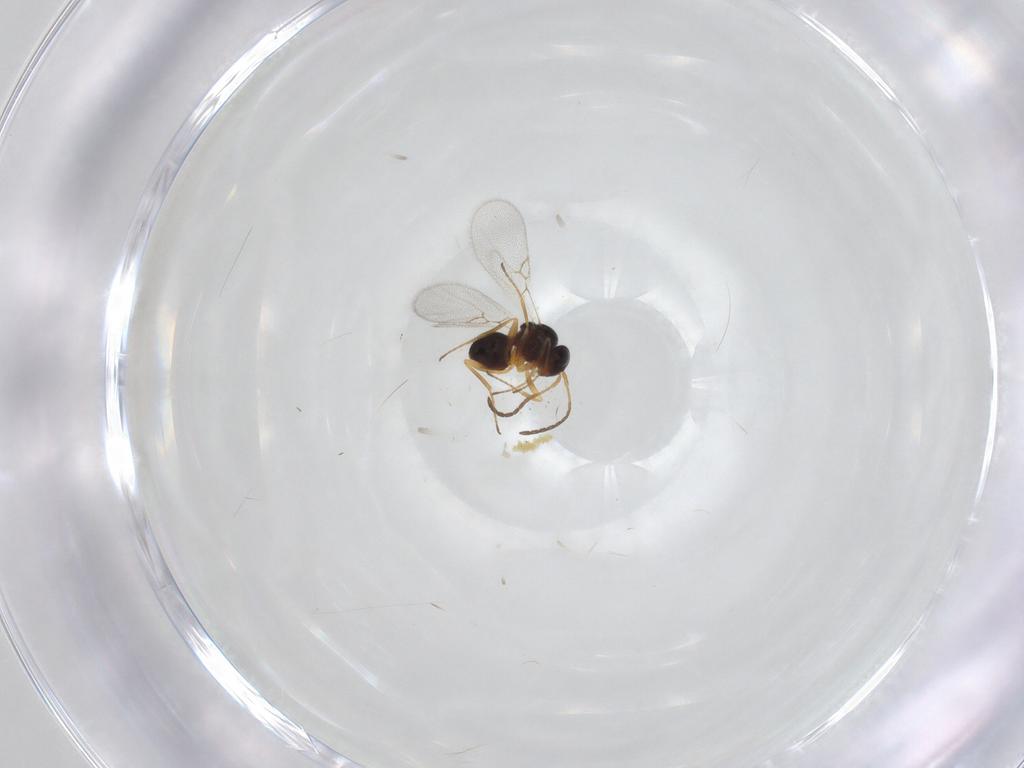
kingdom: Animalia
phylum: Arthropoda
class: Insecta
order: Hymenoptera
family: Figitidae
